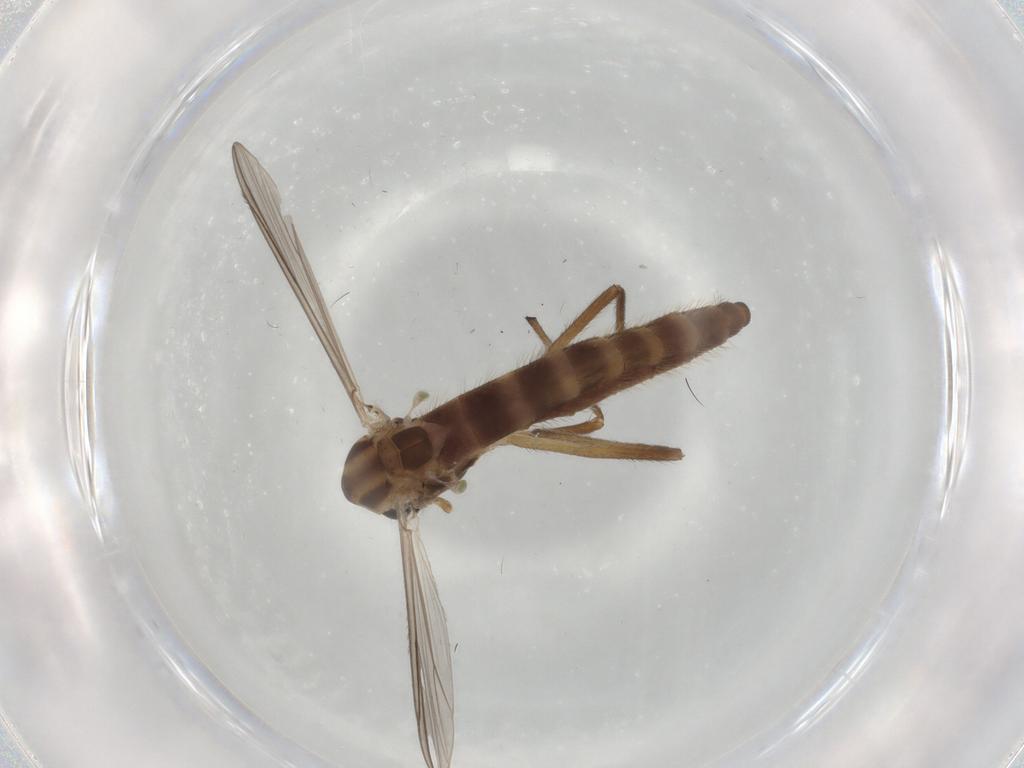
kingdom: Animalia
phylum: Arthropoda
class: Insecta
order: Diptera
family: Chironomidae
